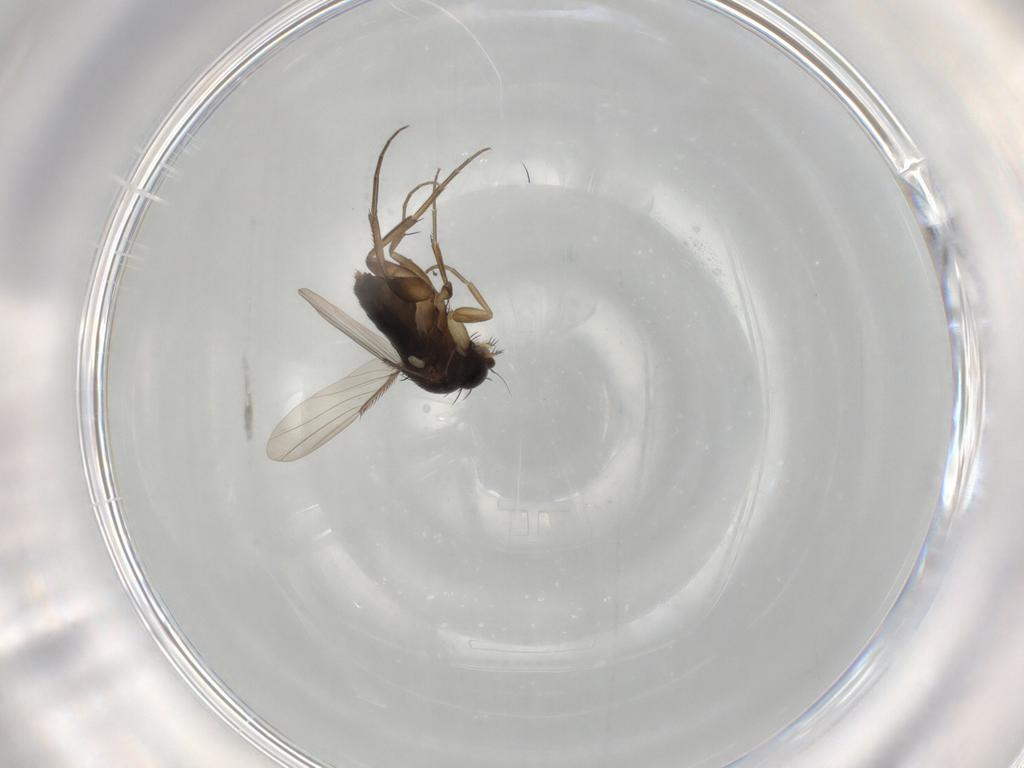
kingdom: Animalia
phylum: Arthropoda
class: Insecta
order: Diptera
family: Phoridae
